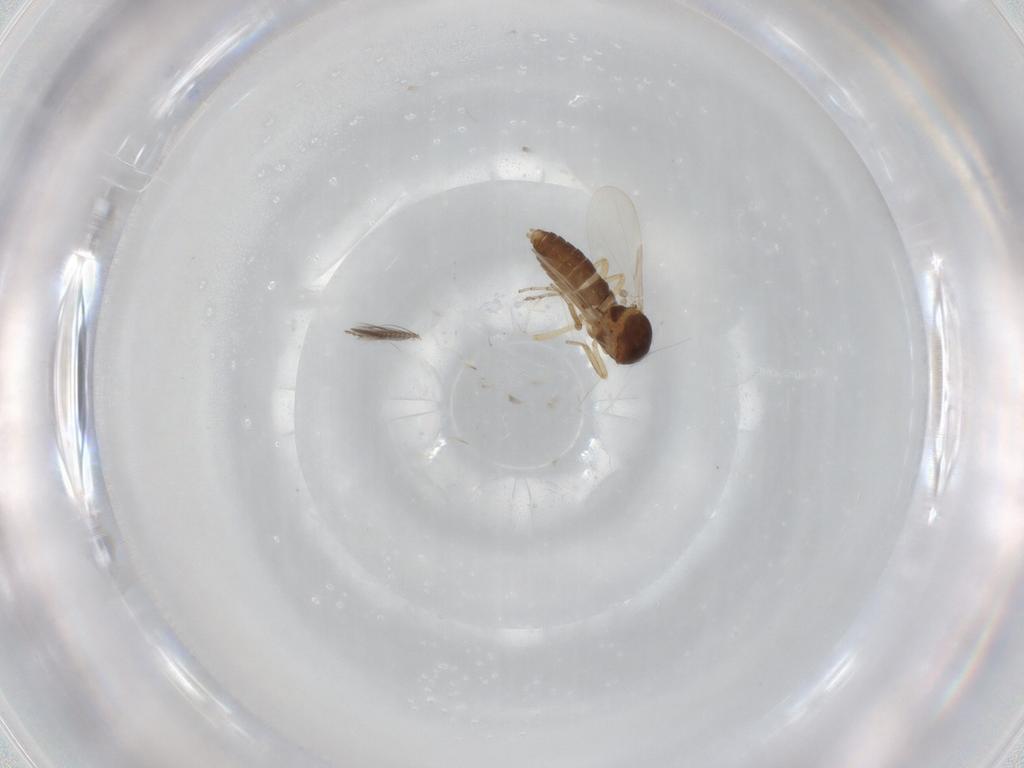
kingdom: Animalia
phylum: Arthropoda
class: Insecta
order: Diptera
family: Ceratopogonidae
